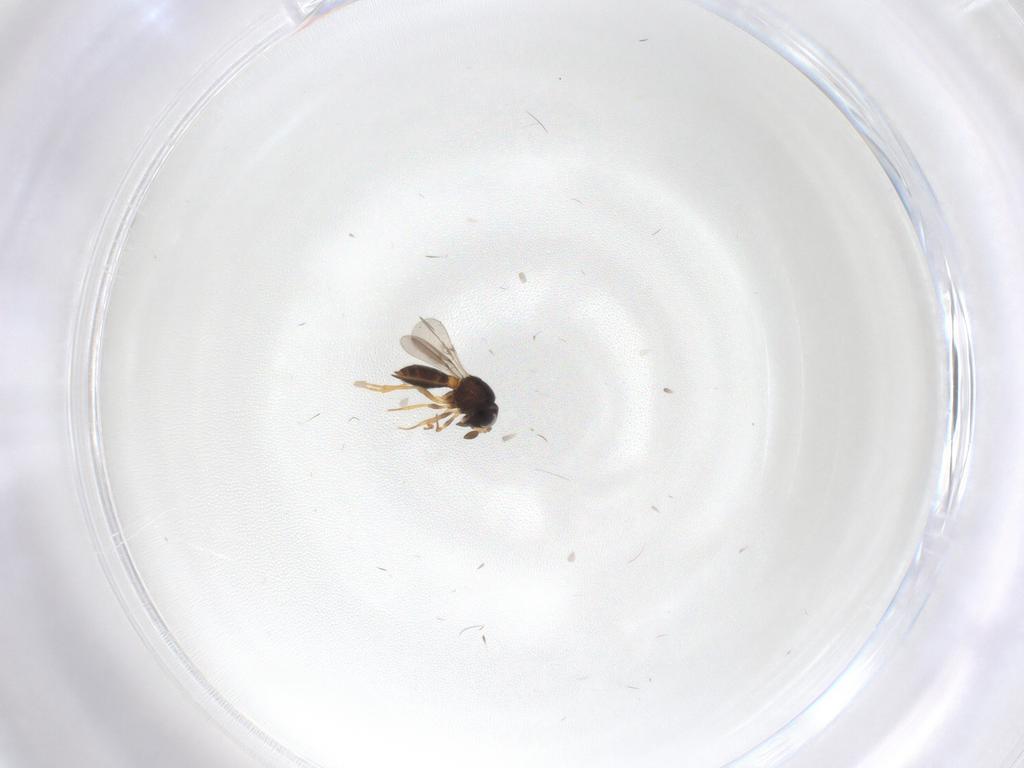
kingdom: Animalia
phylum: Arthropoda
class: Insecta
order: Hymenoptera
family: Scelionidae
